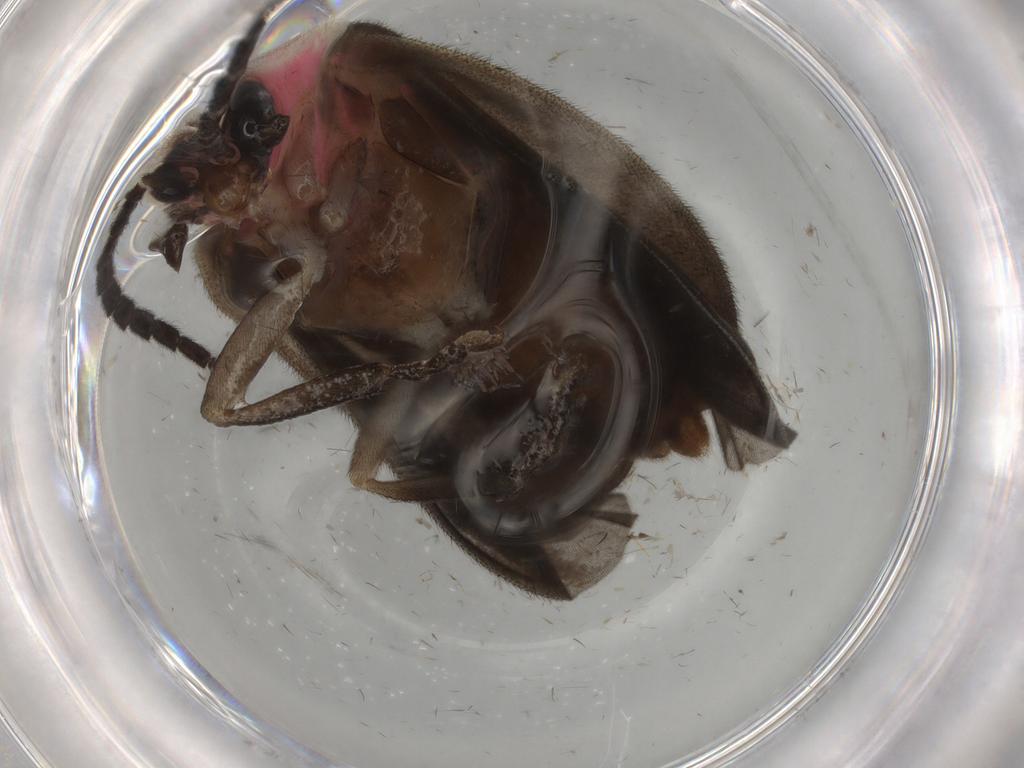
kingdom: Animalia
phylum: Arthropoda
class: Insecta
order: Coleoptera
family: Lampyridae
